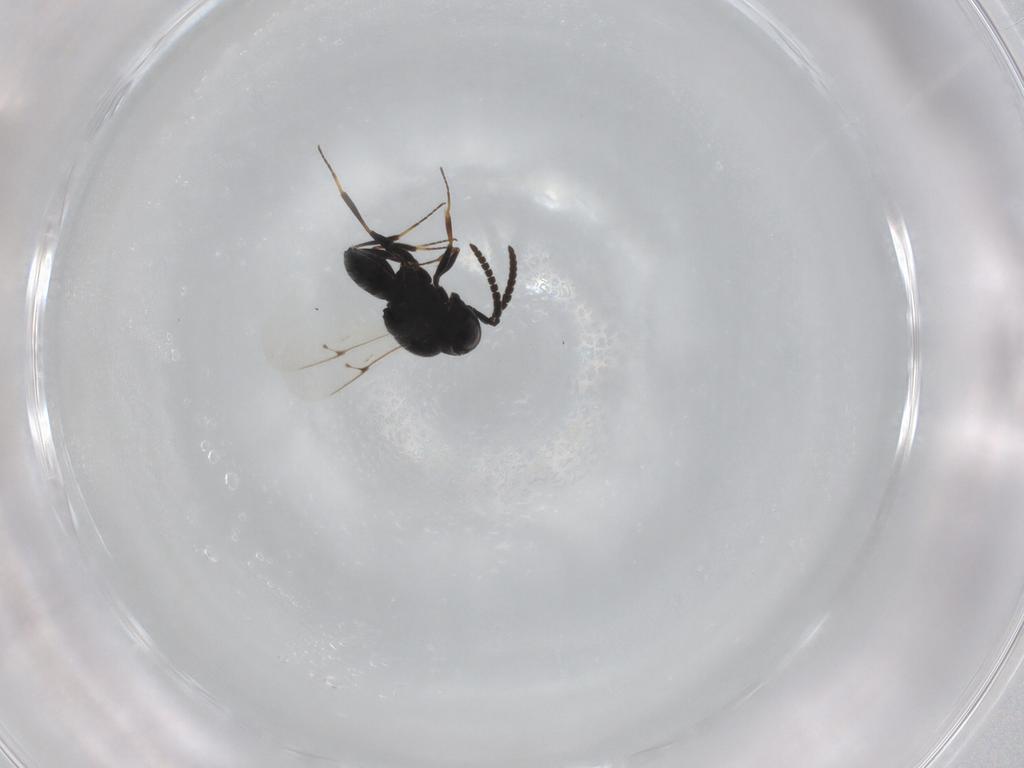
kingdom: Animalia
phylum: Arthropoda
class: Insecta
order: Hymenoptera
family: Scelionidae
